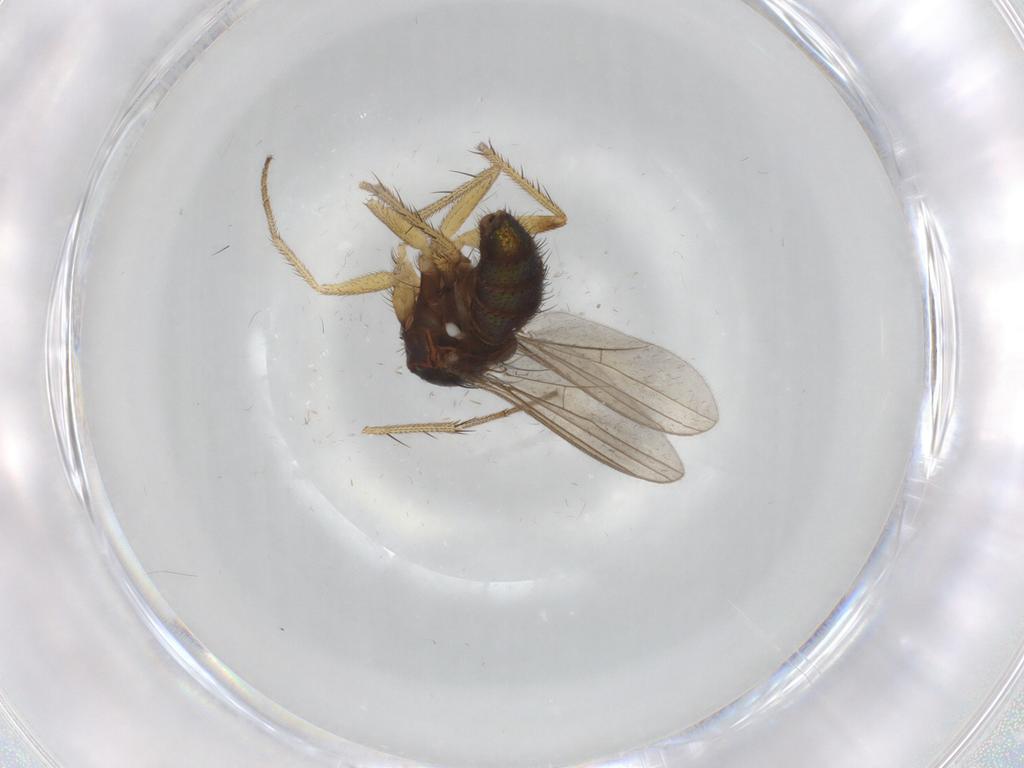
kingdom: Animalia
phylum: Arthropoda
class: Insecta
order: Diptera
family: Dolichopodidae
